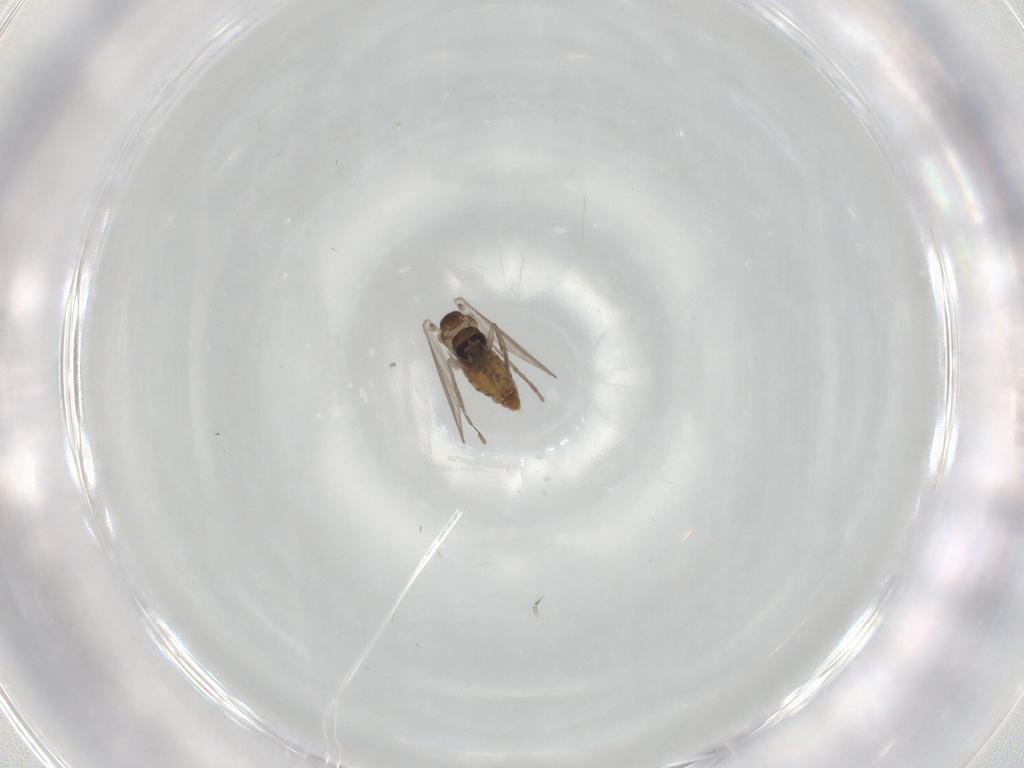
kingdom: Animalia
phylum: Arthropoda
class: Insecta
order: Diptera
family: Psychodidae
